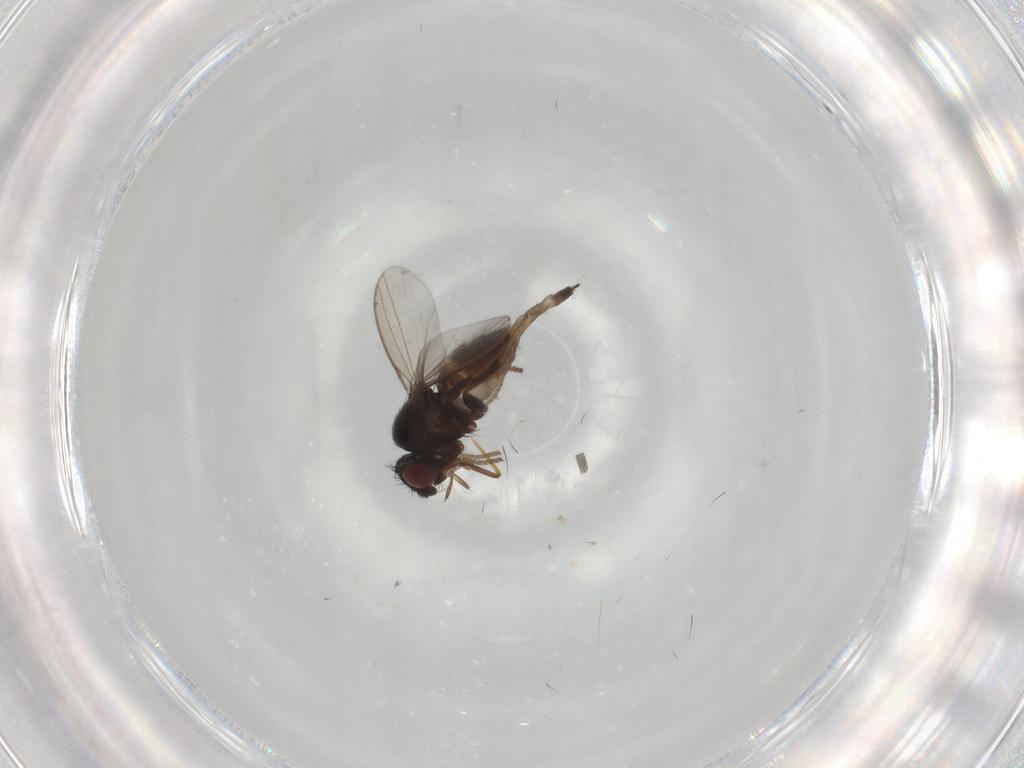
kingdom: Animalia
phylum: Arthropoda
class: Insecta
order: Diptera
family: Milichiidae
